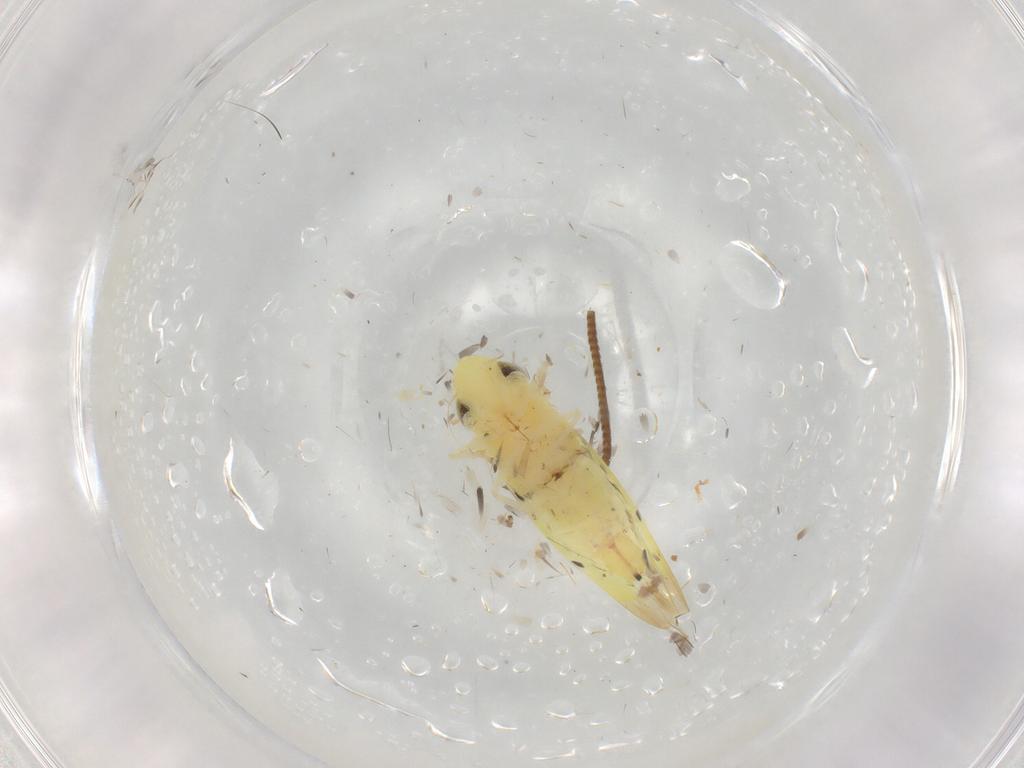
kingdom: Animalia
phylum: Arthropoda
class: Insecta
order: Hemiptera
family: Cicadellidae
